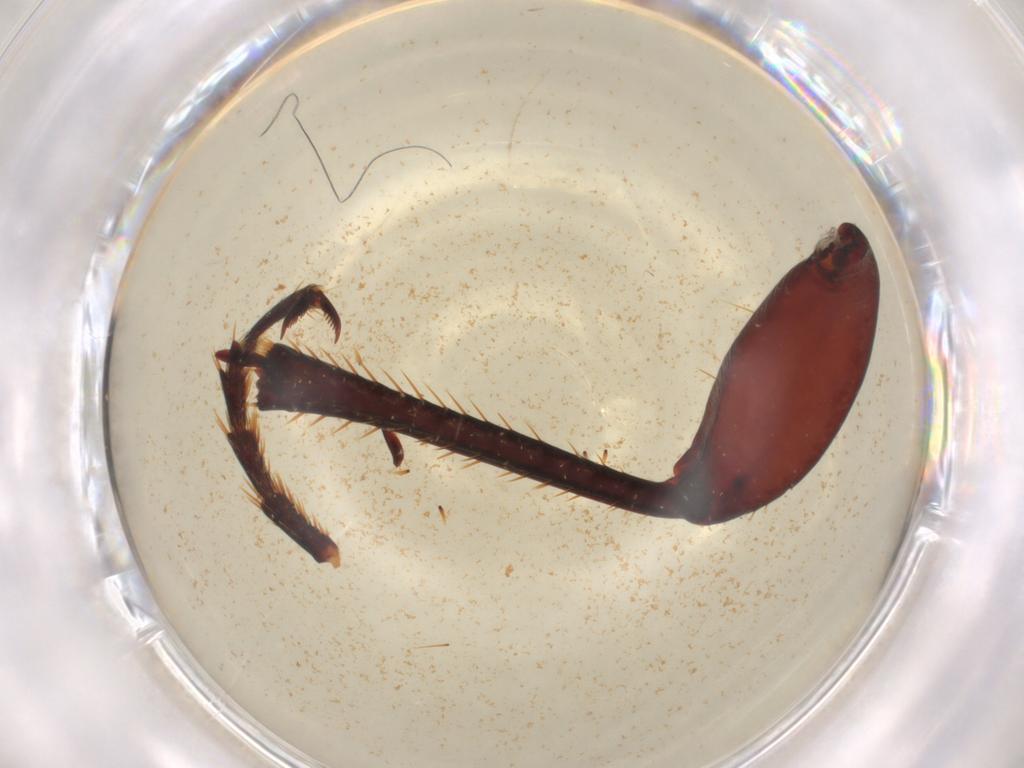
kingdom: Animalia
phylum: Arthropoda
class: Insecta
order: Coleoptera
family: Carabidae
